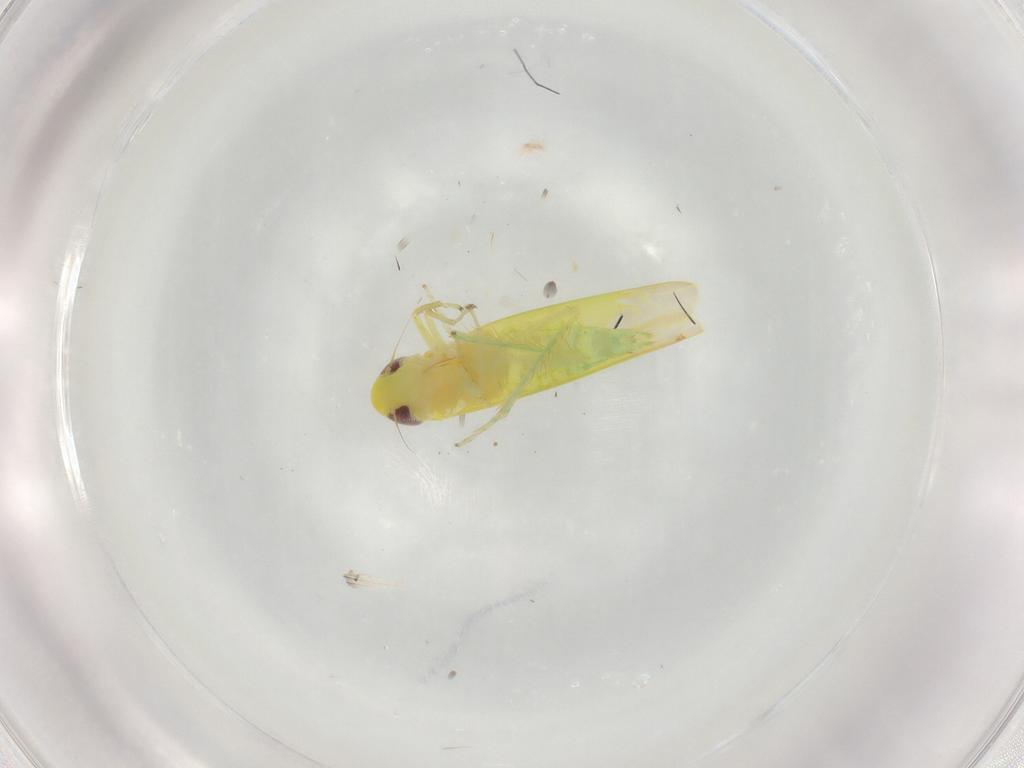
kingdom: Animalia
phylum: Arthropoda
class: Insecta
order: Hemiptera
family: Cicadellidae
